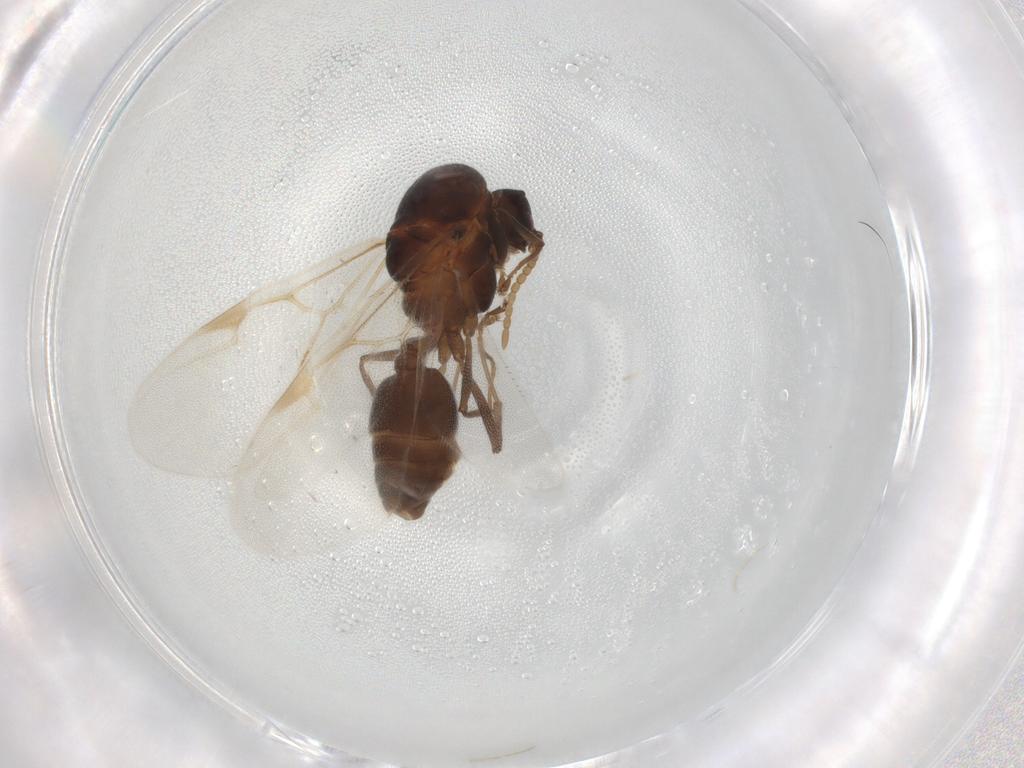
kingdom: Animalia
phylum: Arthropoda
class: Insecta
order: Hymenoptera
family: Formicidae
